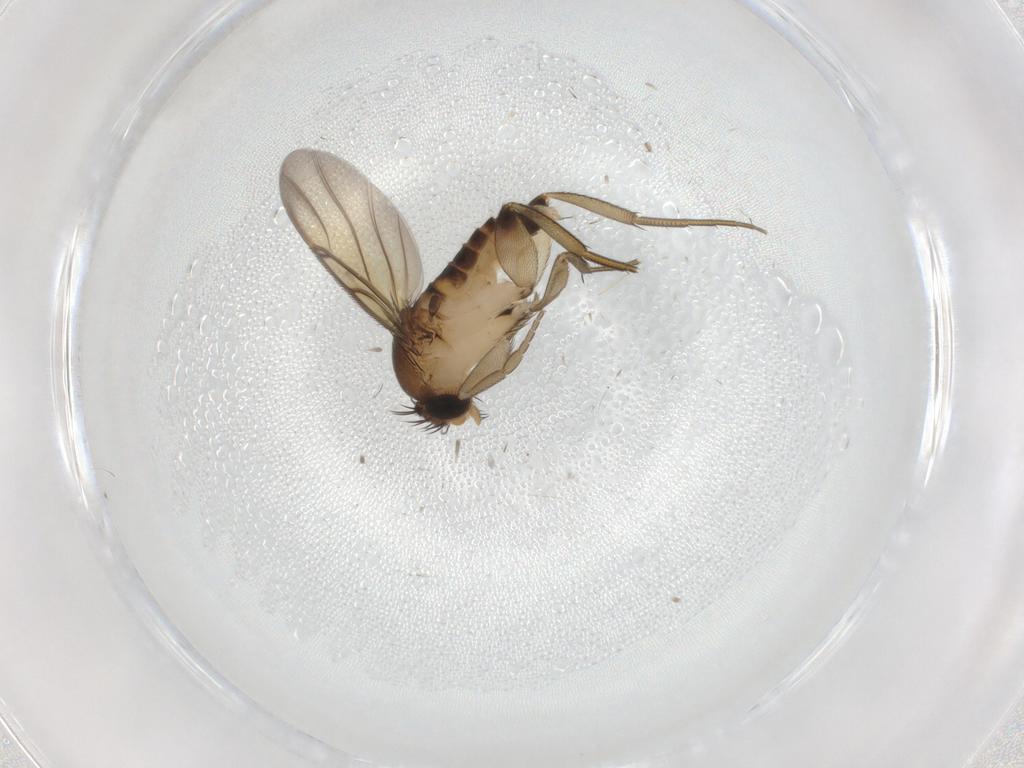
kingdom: Animalia
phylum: Arthropoda
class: Insecta
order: Diptera
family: Phoridae
